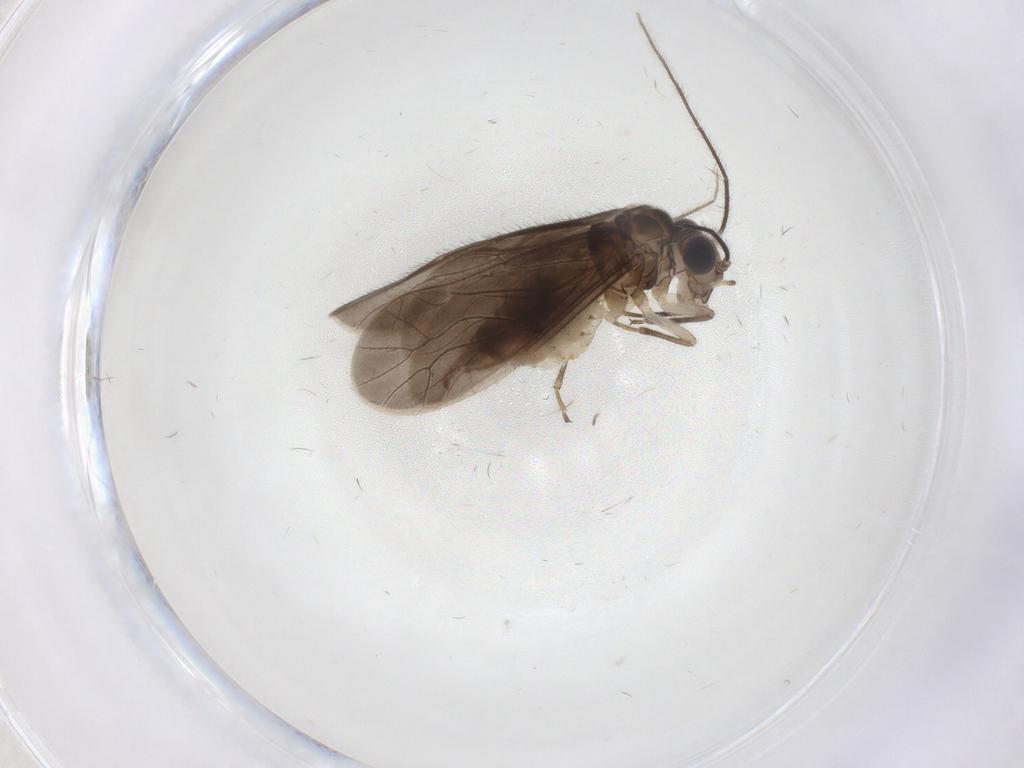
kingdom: Animalia
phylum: Arthropoda
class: Insecta
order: Psocodea
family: Caeciliusidae
